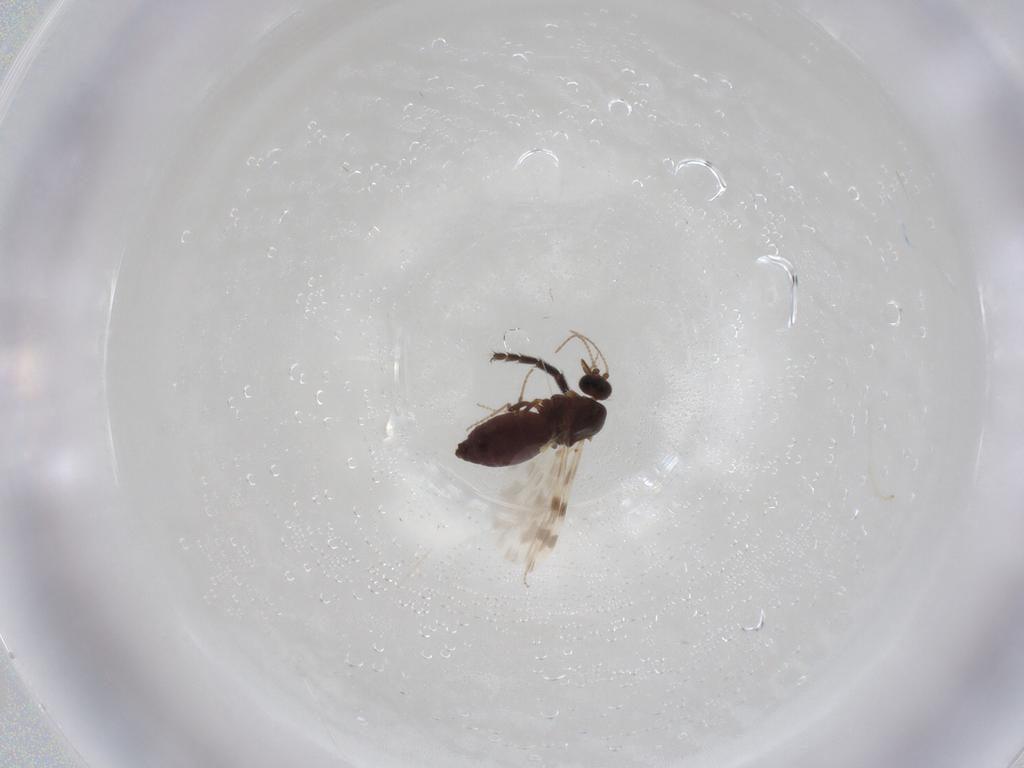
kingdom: Animalia
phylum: Arthropoda
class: Insecta
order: Diptera
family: Muscidae
